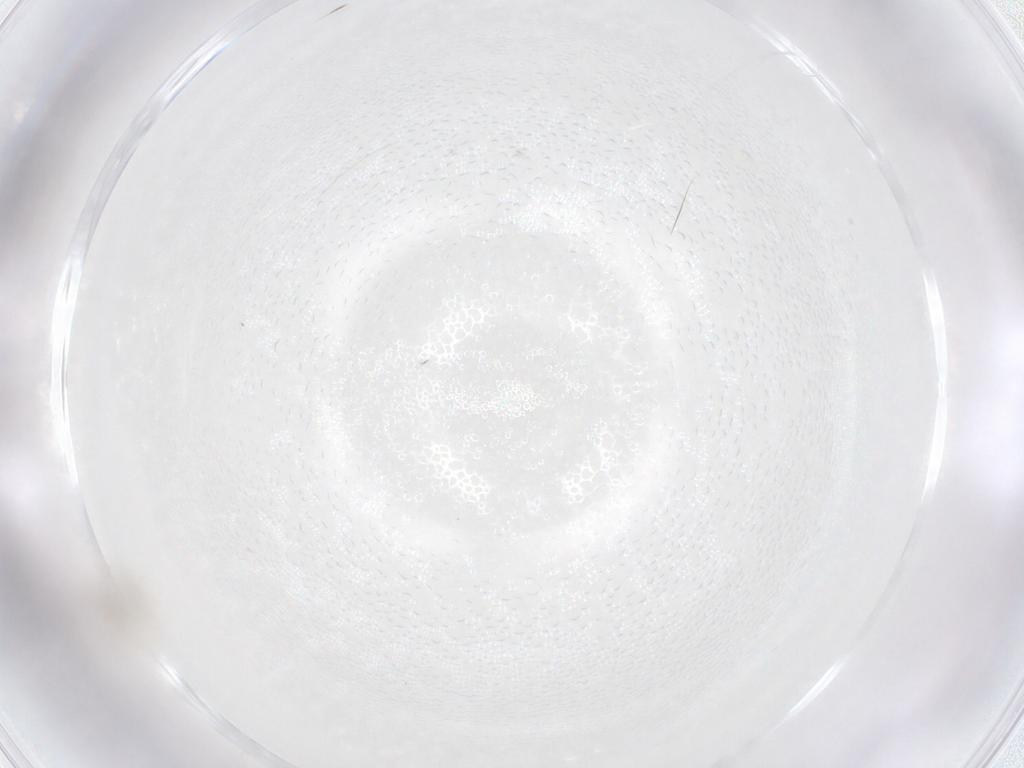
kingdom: Animalia
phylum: Arthropoda
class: Insecta
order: Hymenoptera
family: Aphelinidae
